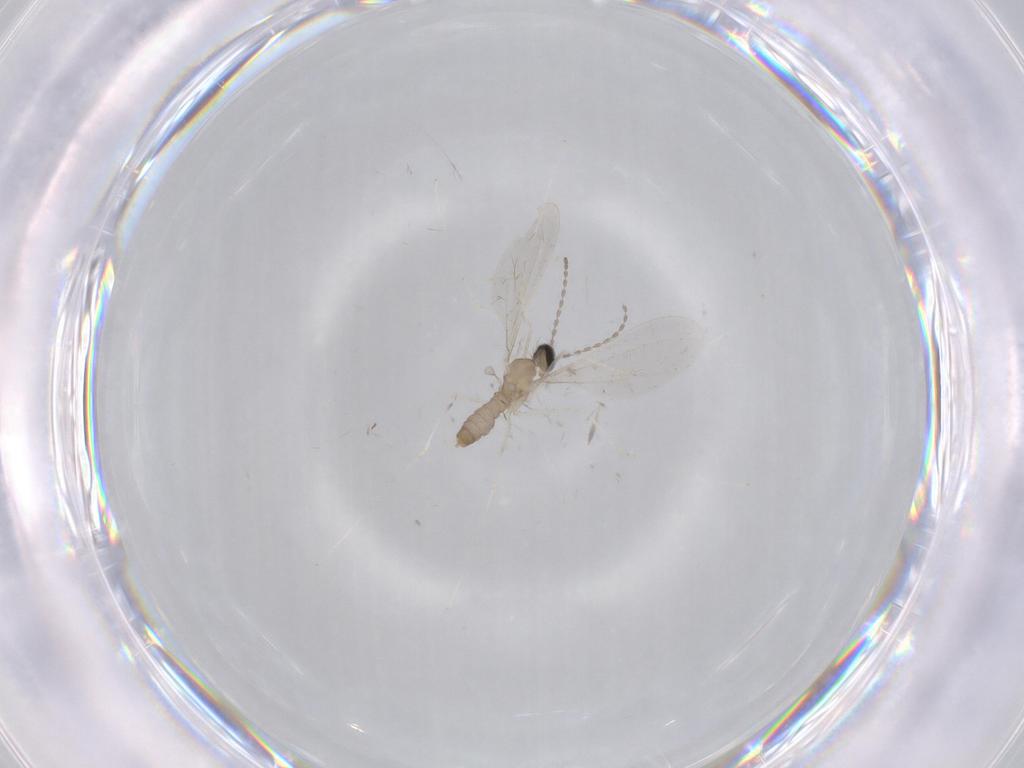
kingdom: Animalia
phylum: Arthropoda
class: Insecta
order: Diptera
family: Cecidomyiidae
